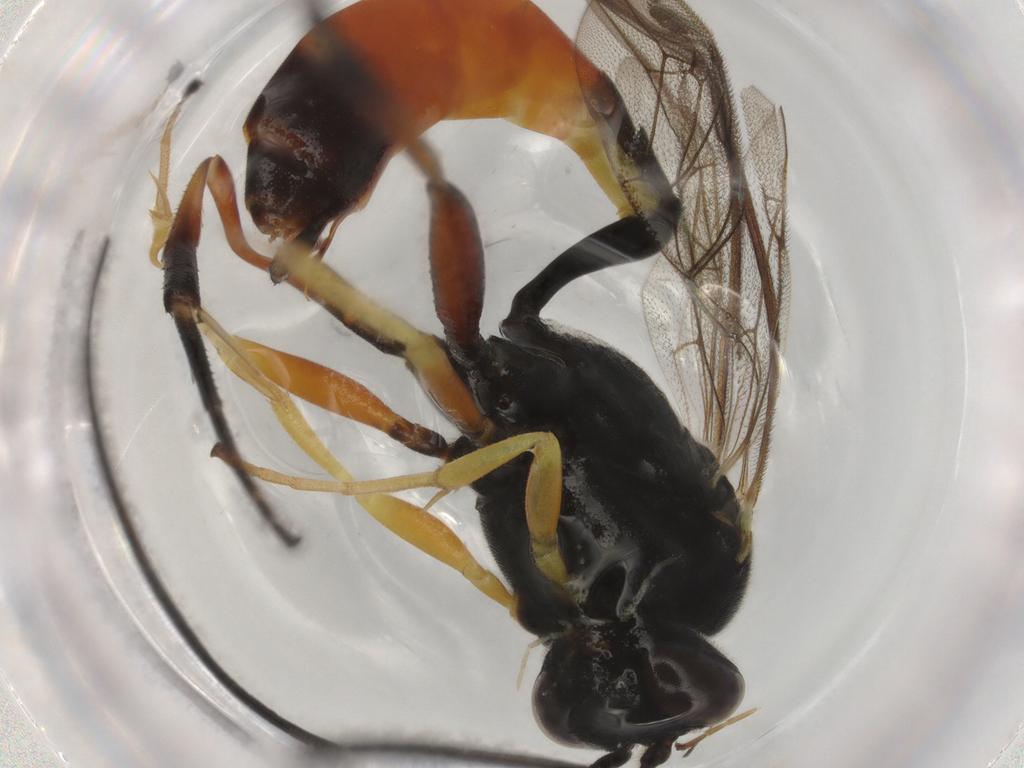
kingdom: Animalia
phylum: Arthropoda
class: Insecta
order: Hymenoptera
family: Ichneumonidae
